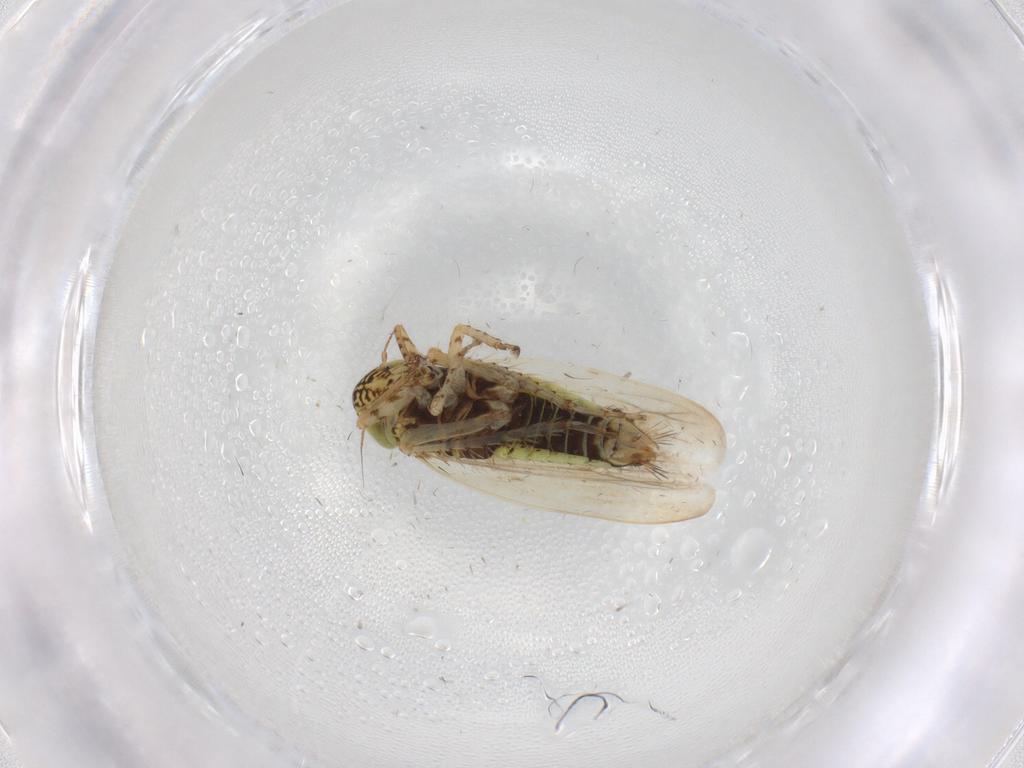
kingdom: Animalia
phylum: Arthropoda
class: Insecta
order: Hemiptera
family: Cicadellidae
